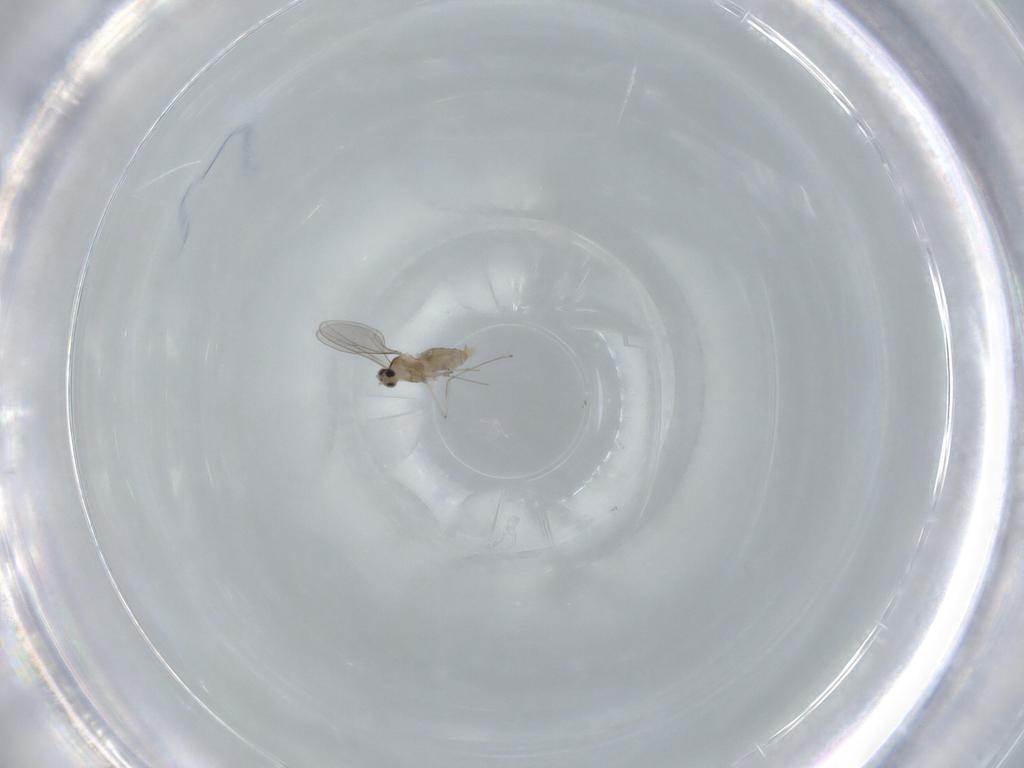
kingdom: Animalia
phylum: Arthropoda
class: Insecta
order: Diptera
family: Cecidomyiidae
